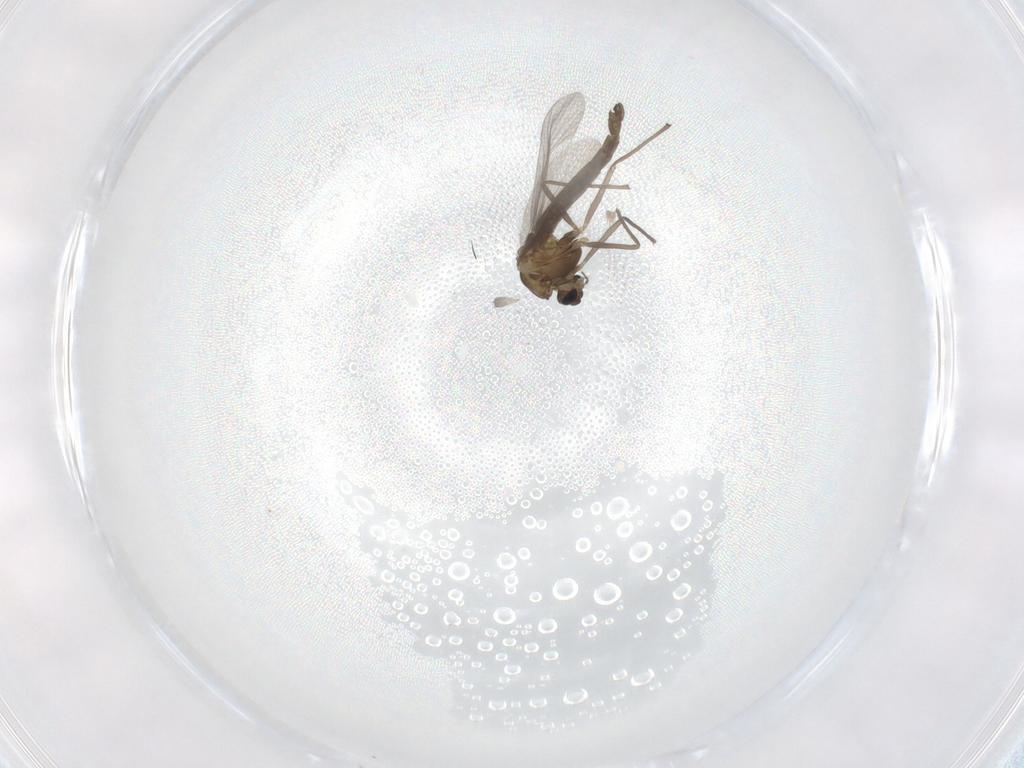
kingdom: Animalia
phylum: Arthropoda
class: Insecta
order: Diptera
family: Chironomidae
